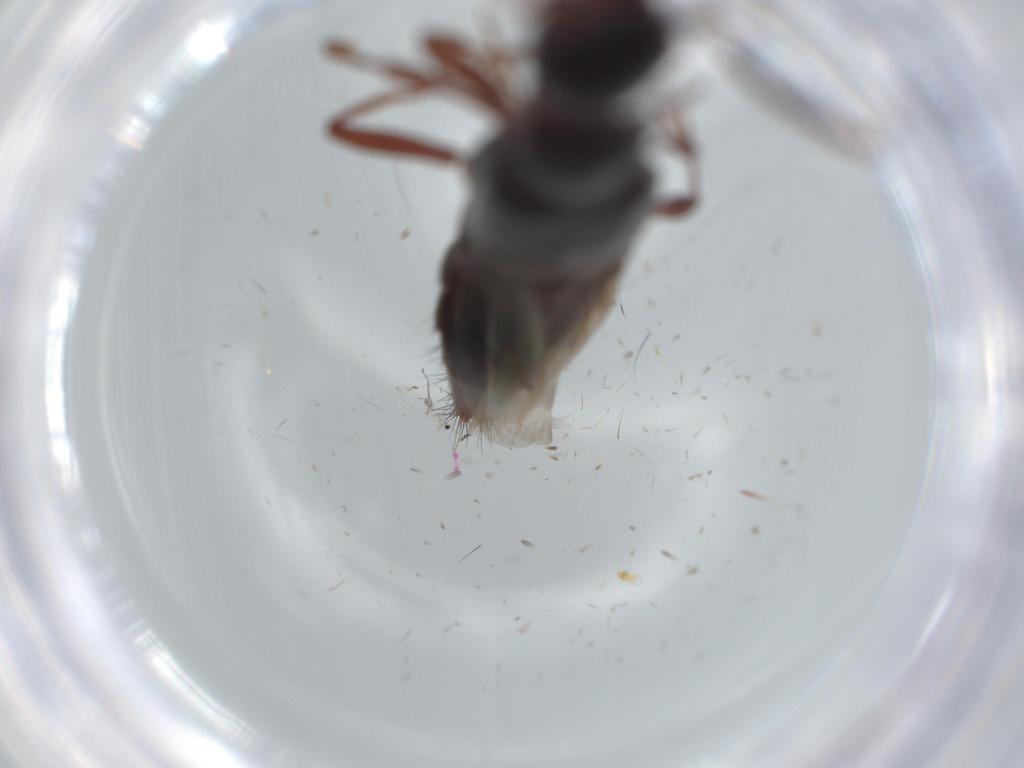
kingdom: Animalia
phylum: Arthropoda
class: Insecta
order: Coleoptera
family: Staphylinidae
